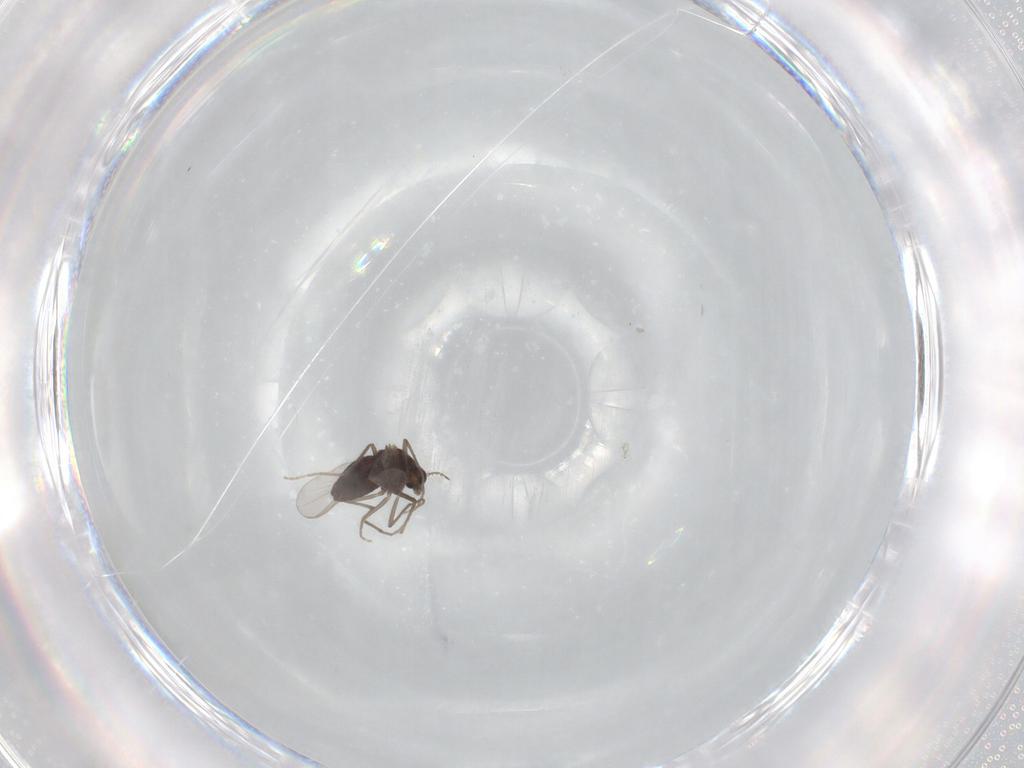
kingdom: Animalia
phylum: Arthropoda
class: Insecta
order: Diptera
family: Chironomidae
